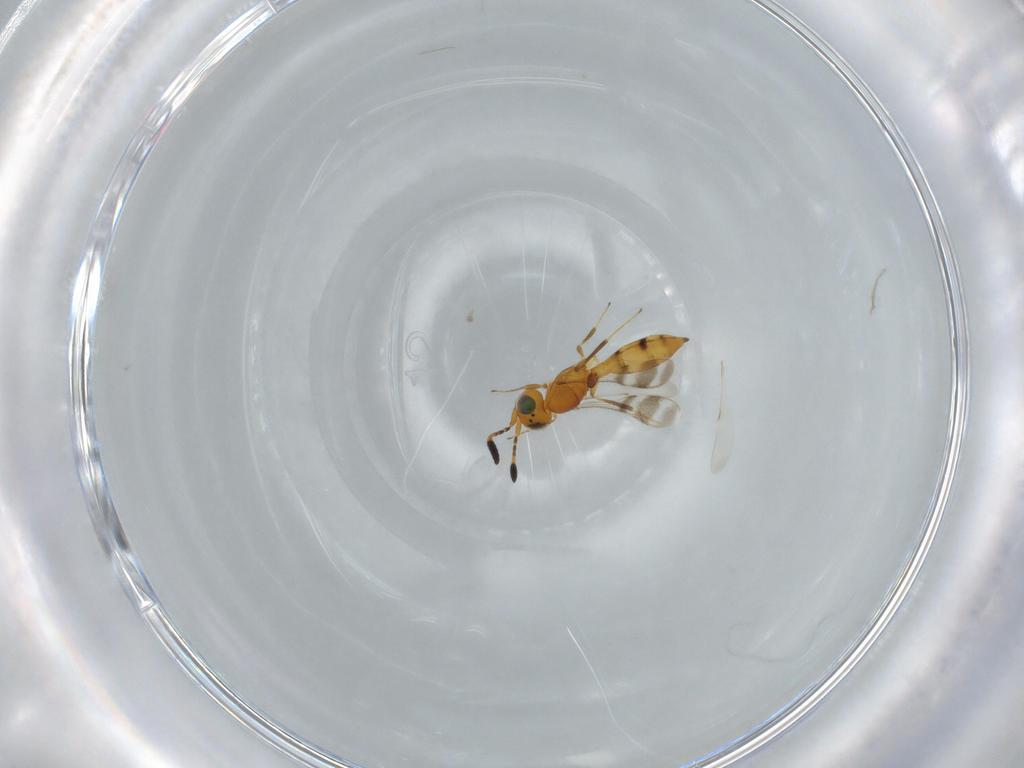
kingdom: Animalia
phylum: Arthropoda
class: Insecta
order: Hymenoptera
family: Scelionidae
